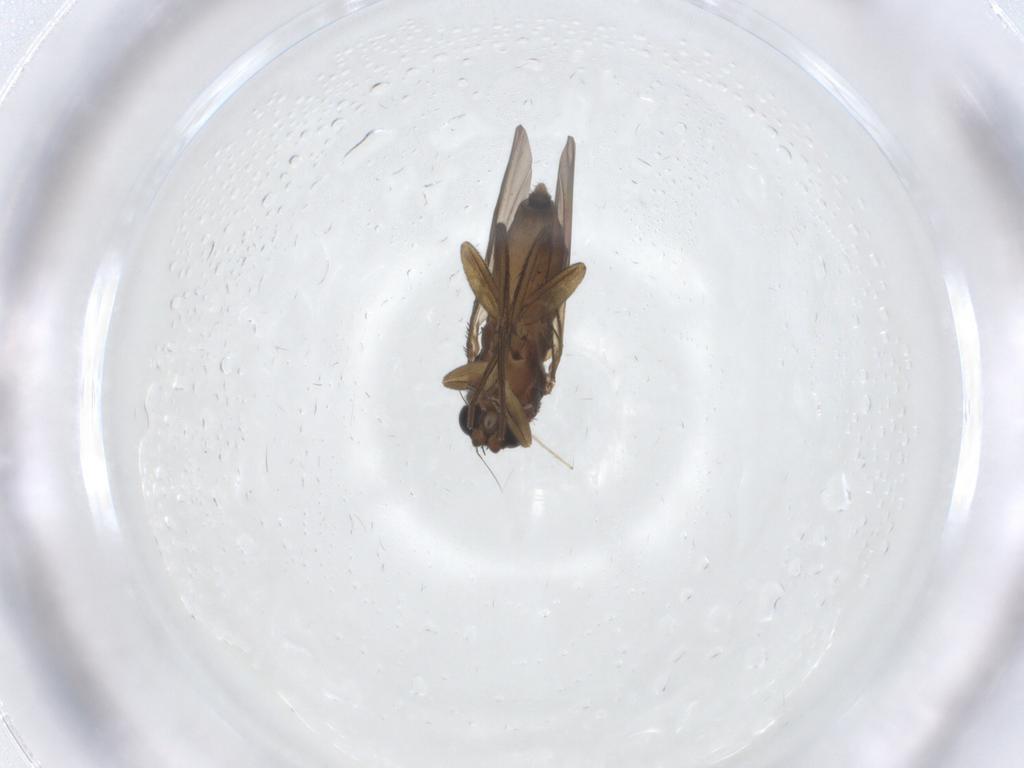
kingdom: Animalia
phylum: Arthropoda
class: Insecta
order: Diptera
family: Phoridae
